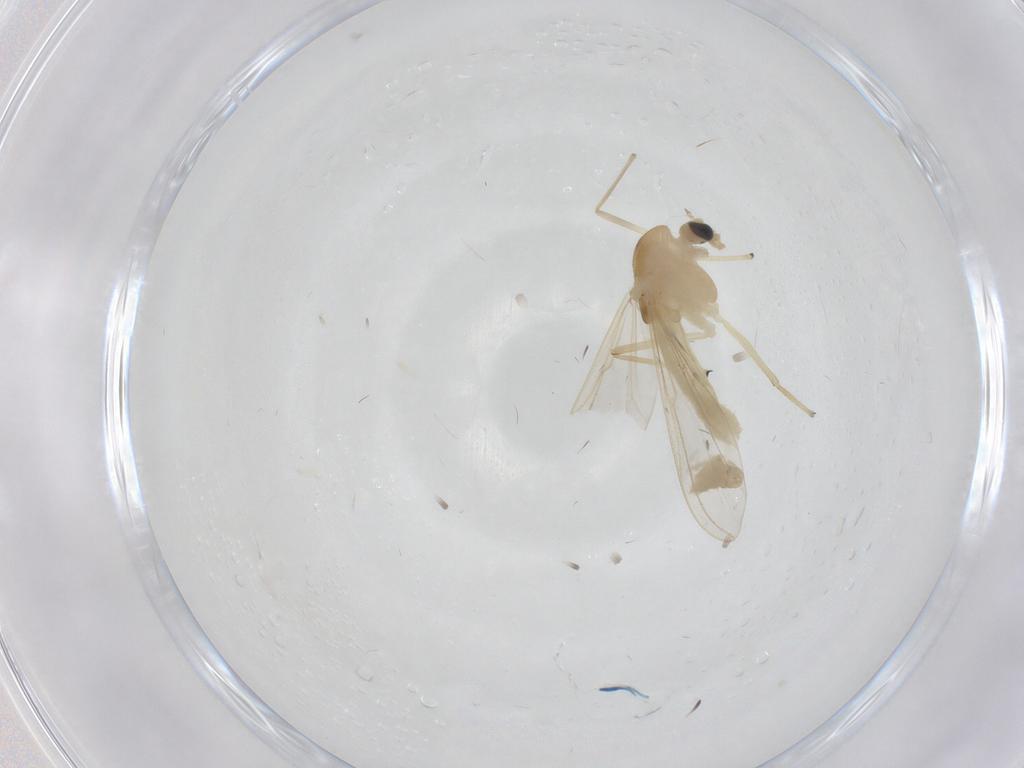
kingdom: Animalia
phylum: Arthropoda
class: Insecta
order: Diptera
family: Chironomidae
